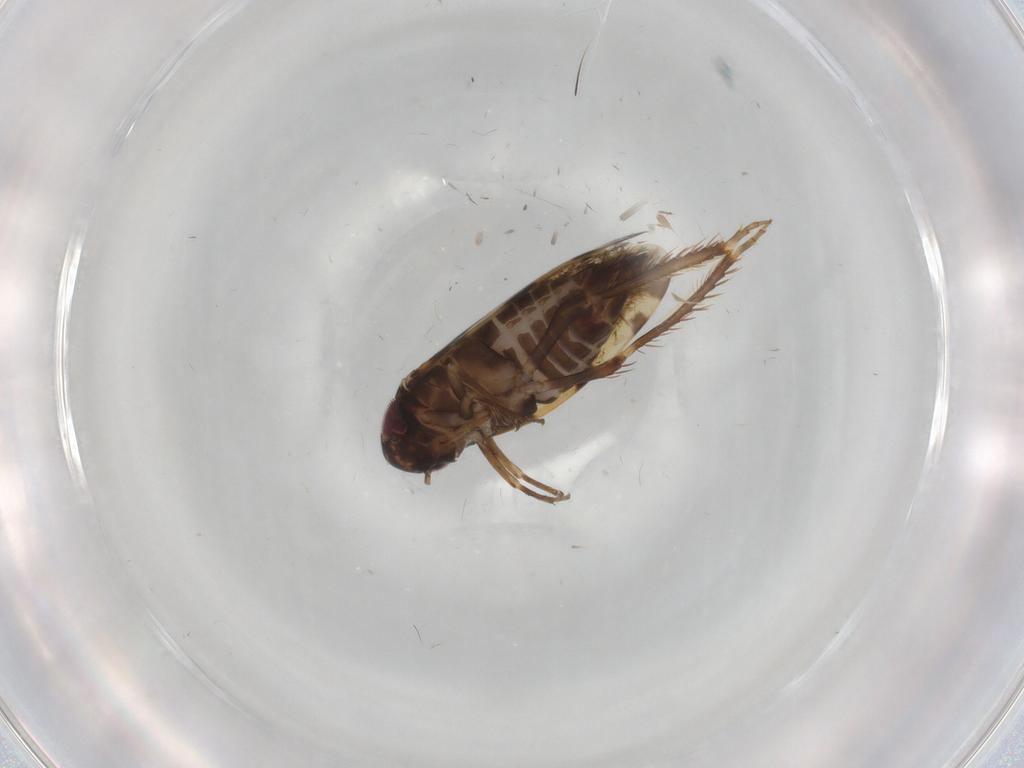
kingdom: Animalia
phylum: Arthropoda
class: Insecta
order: Hemiptera
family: Cicadellidae
